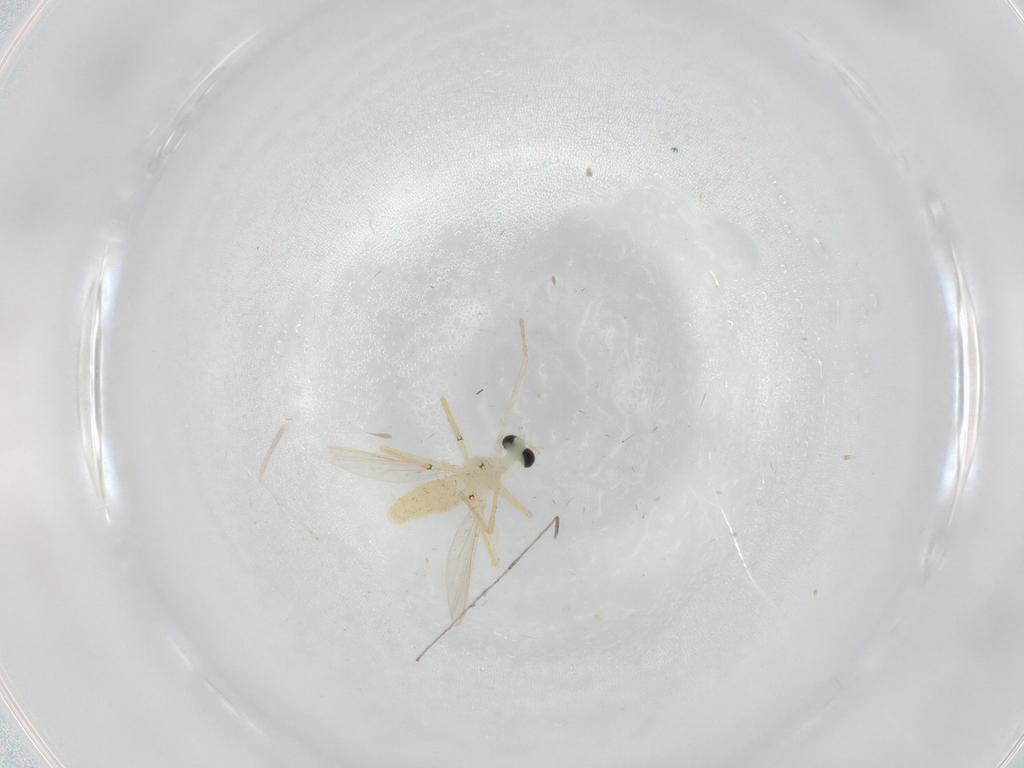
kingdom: Animalia
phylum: Arthropoda
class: Insecta
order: Diptera
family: Chironomidae
